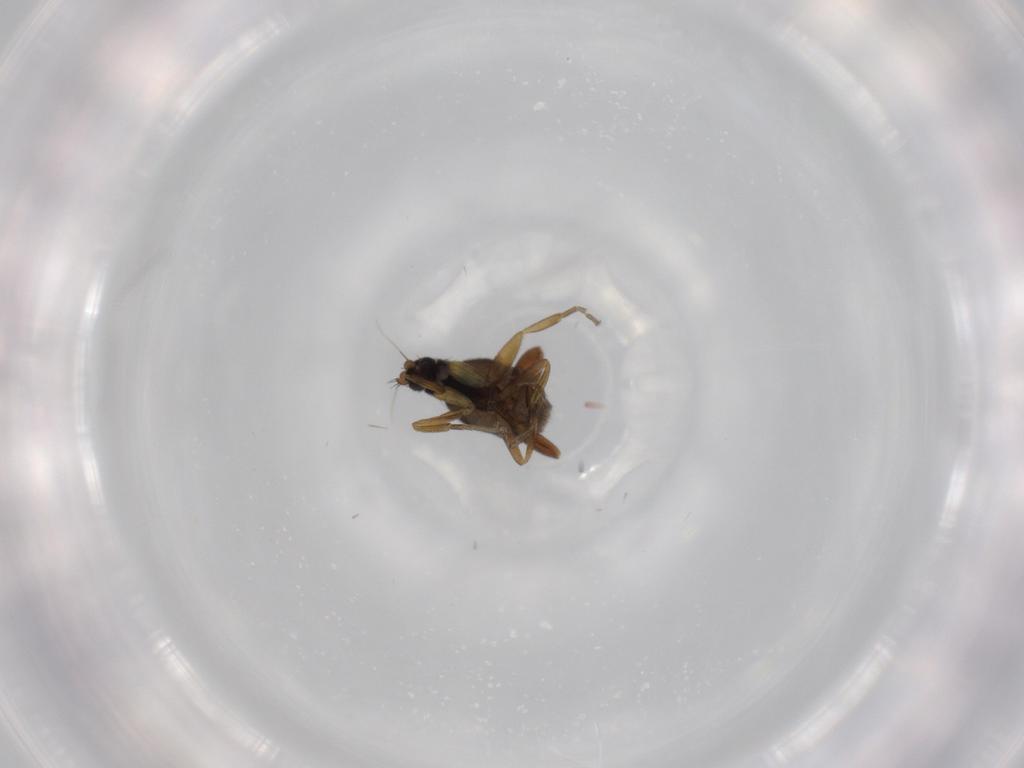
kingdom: Animalia
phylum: Arthropoda
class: Insecta
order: Diptera
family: Phoridae
